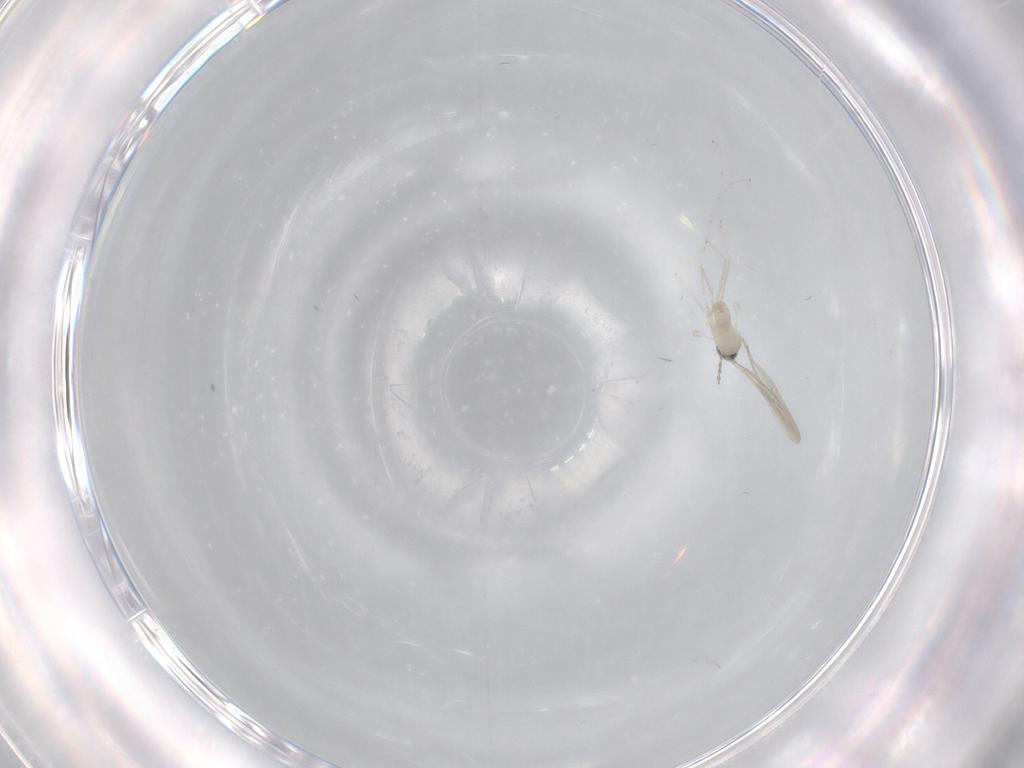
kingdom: Animalia
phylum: Arthropoda
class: Insecta
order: Diptera
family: Cecidomyiidae
